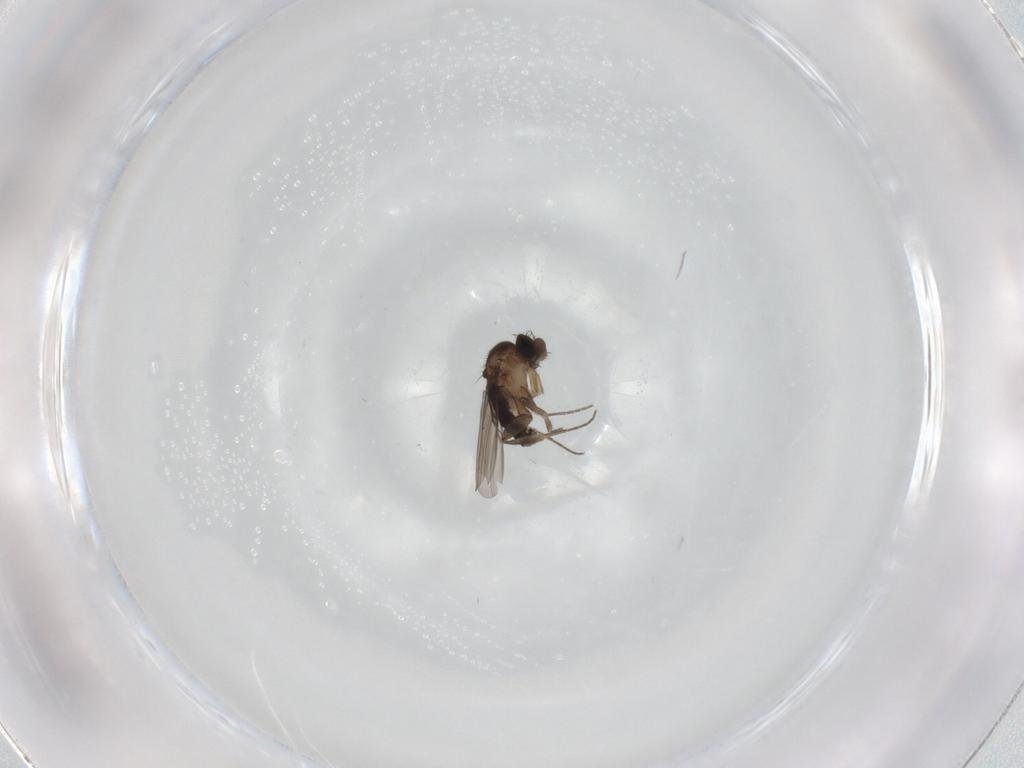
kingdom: Animalia
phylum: Arthropoda
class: Insecta
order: Diptera
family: Phoridae
